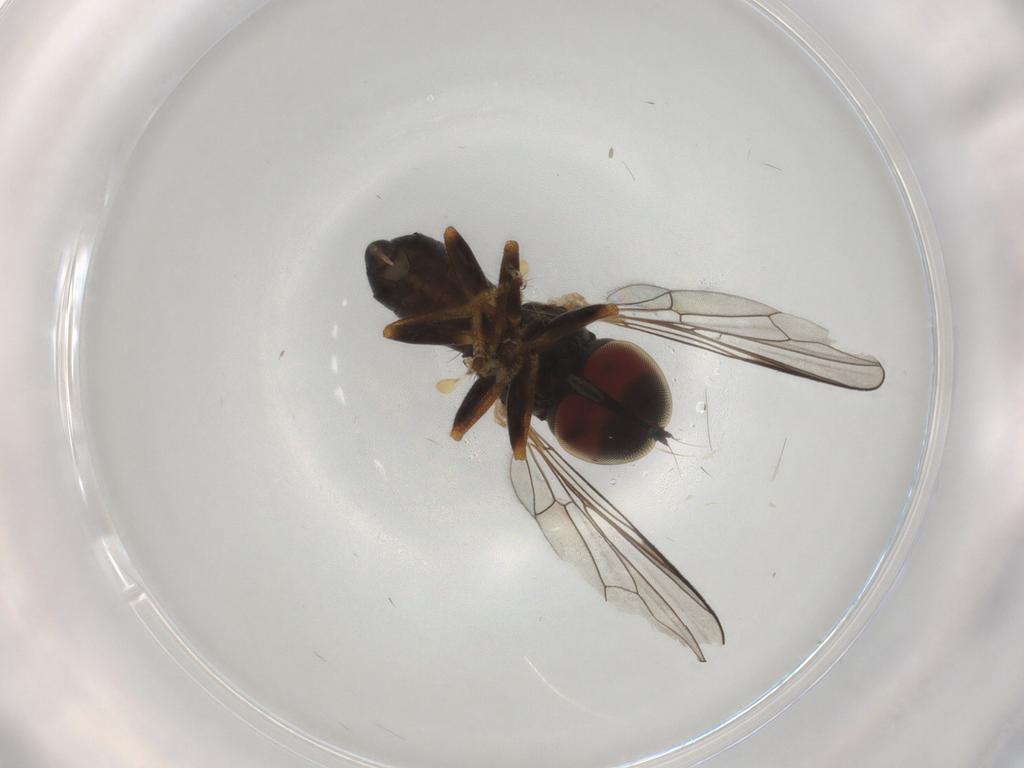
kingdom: Animalia
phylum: Arthropoda
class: Insecta
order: Diptera
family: Pipunculidae
